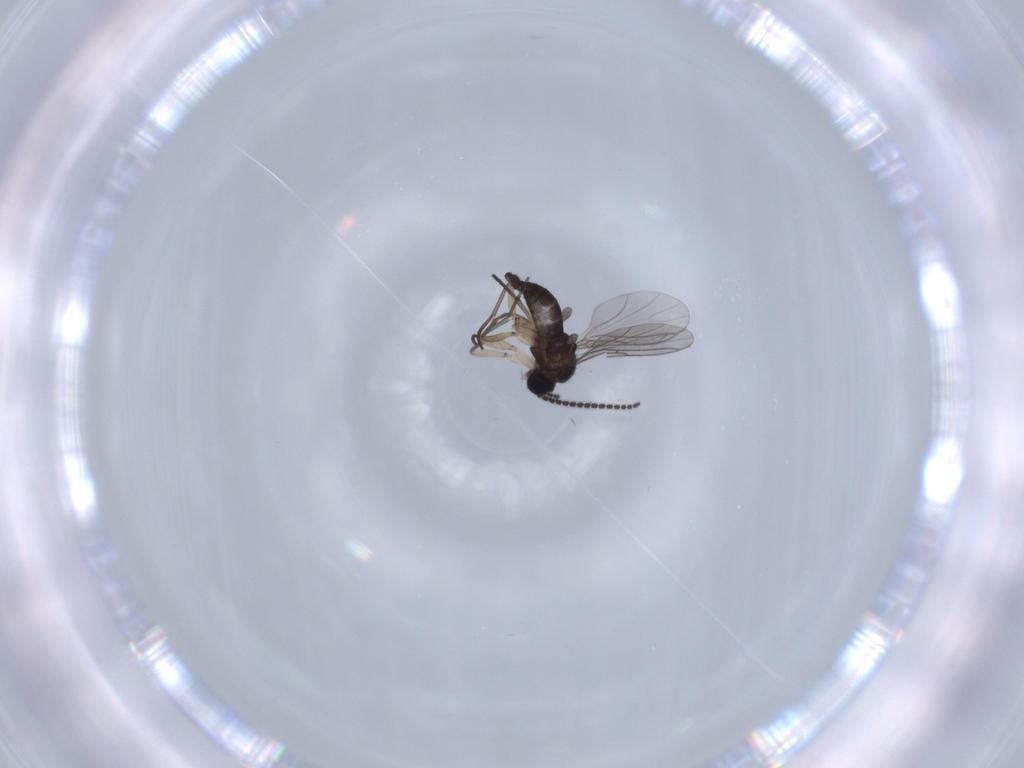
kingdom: Animalia
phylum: Arthropoda
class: Insecta
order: Diptera
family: Sciaridae
